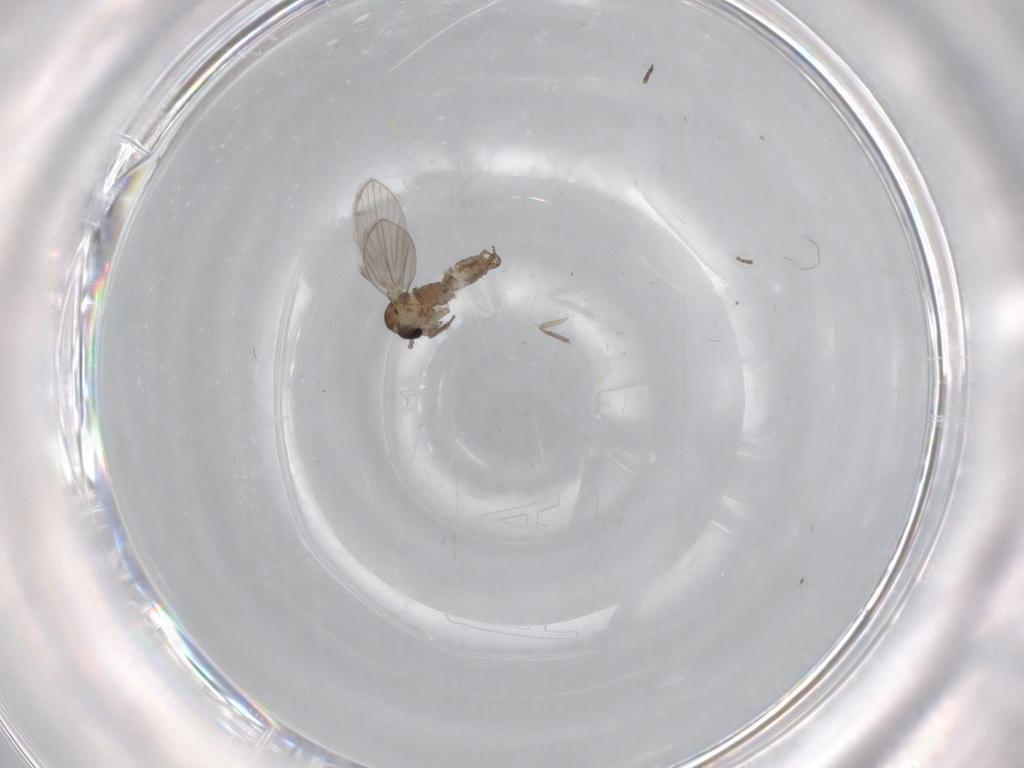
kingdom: Animalia
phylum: Arthropoda
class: Insecta
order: Diptera
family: Psychodidae
